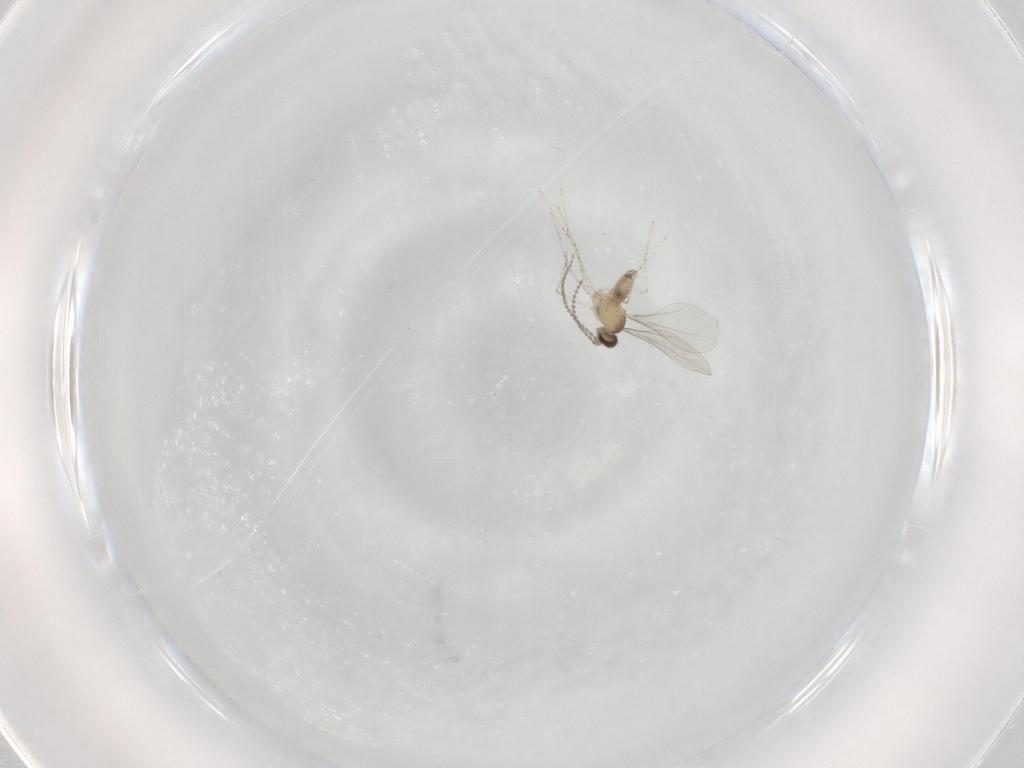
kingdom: Animalia
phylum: Arthropoda
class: Insecta
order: Diptera
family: Cecidomyiidae
